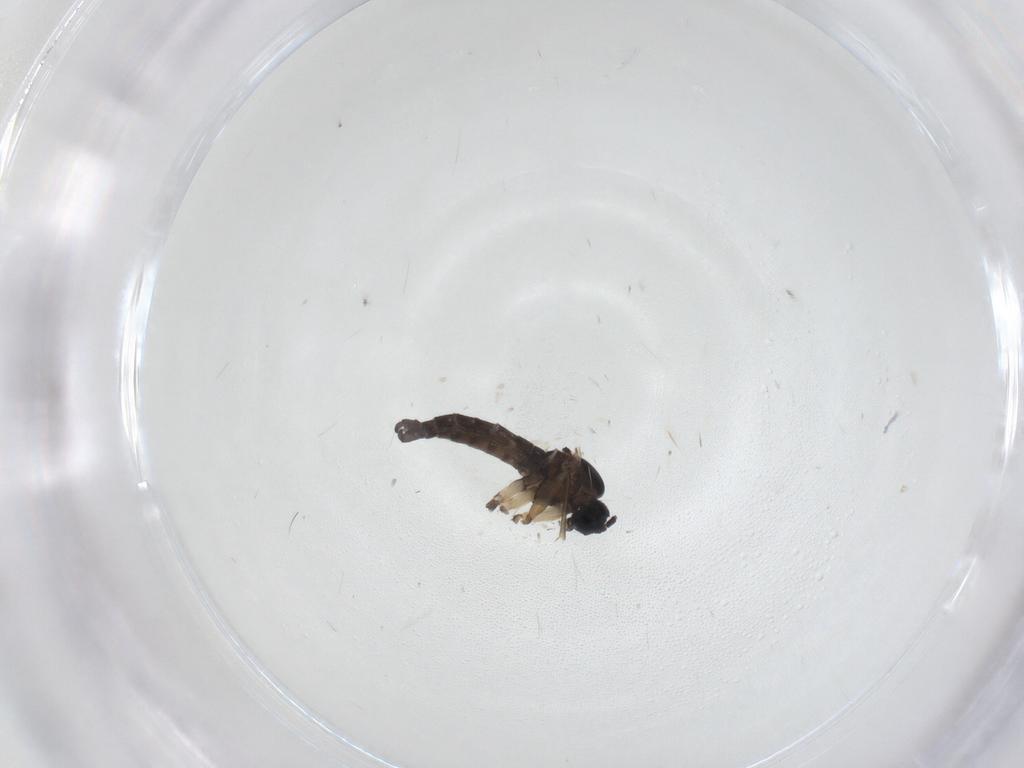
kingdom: Animalia
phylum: Arthropoda
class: Insecta
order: Diptera
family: Sciaridae
